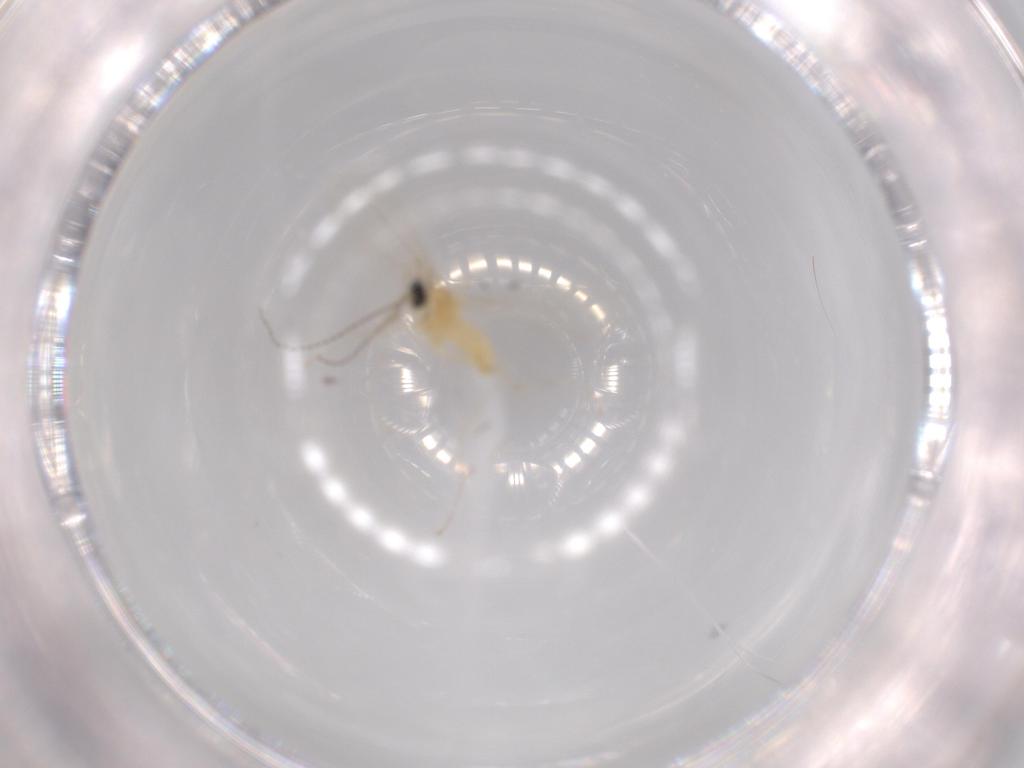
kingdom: Animalia
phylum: Arthropoda
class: Insecta
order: Diptera
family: Cecidomyiidae
